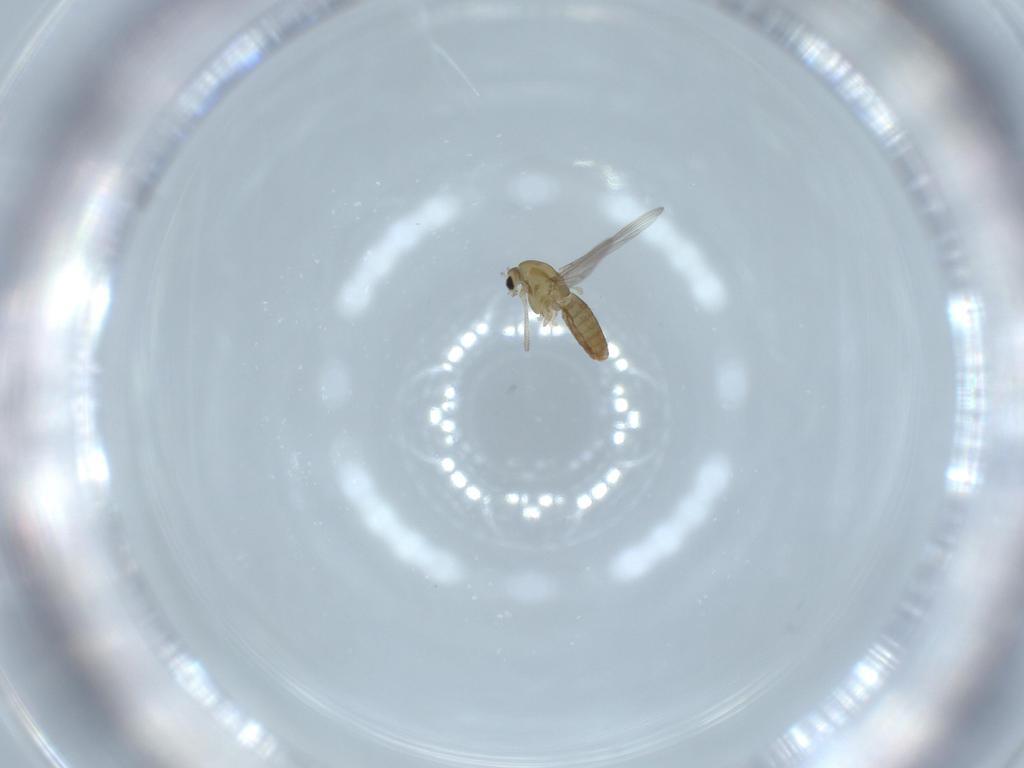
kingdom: Animalia
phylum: Arthropoda
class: Insecta
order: Diptera
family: Chironomidae
